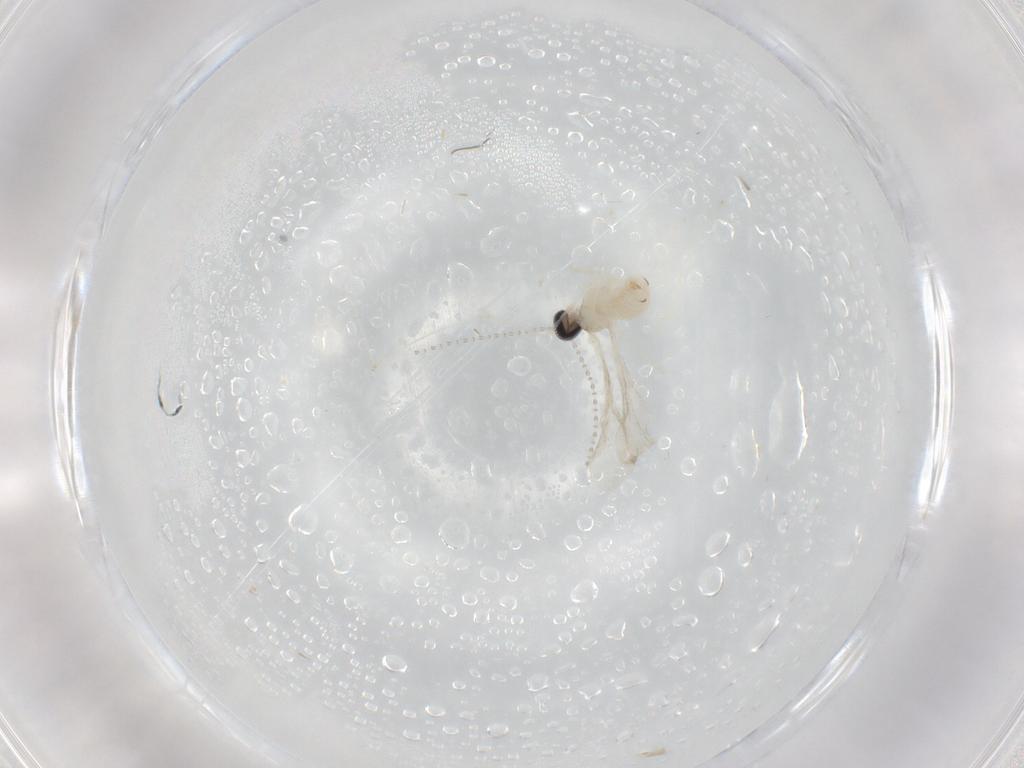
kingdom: Animalia
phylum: Arthropoda
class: Insecta
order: Diptera
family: Cecidomyiidae
